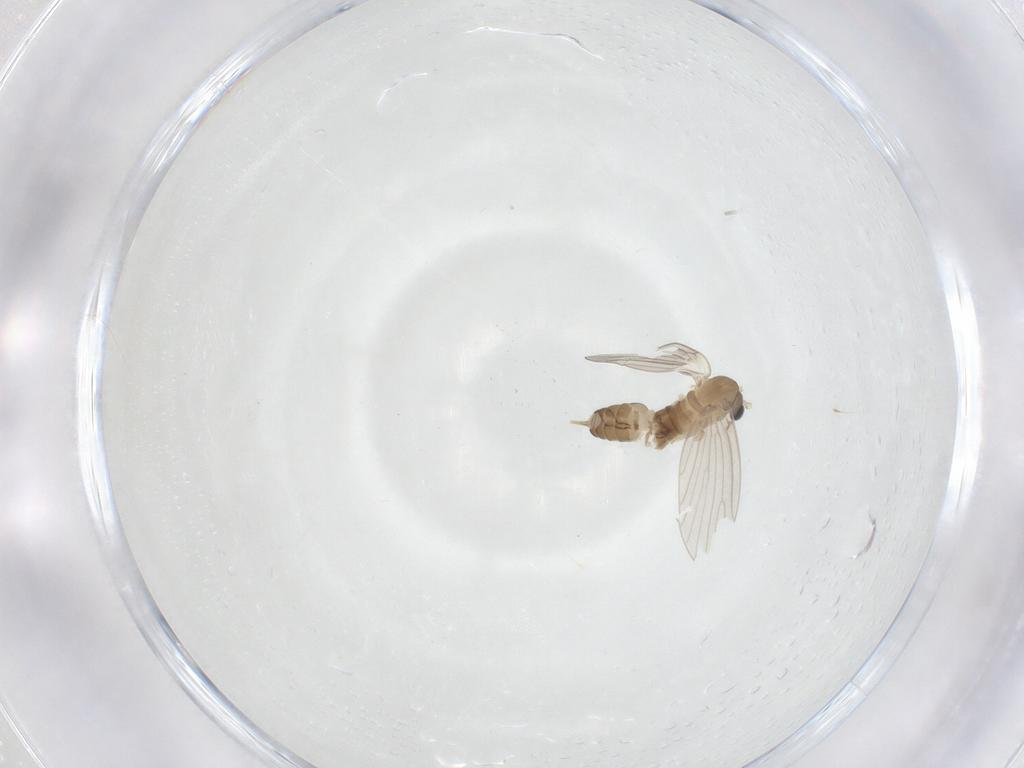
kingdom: Animalia
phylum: Arthropoda
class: Insecta
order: Diptera
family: Psychodidae
